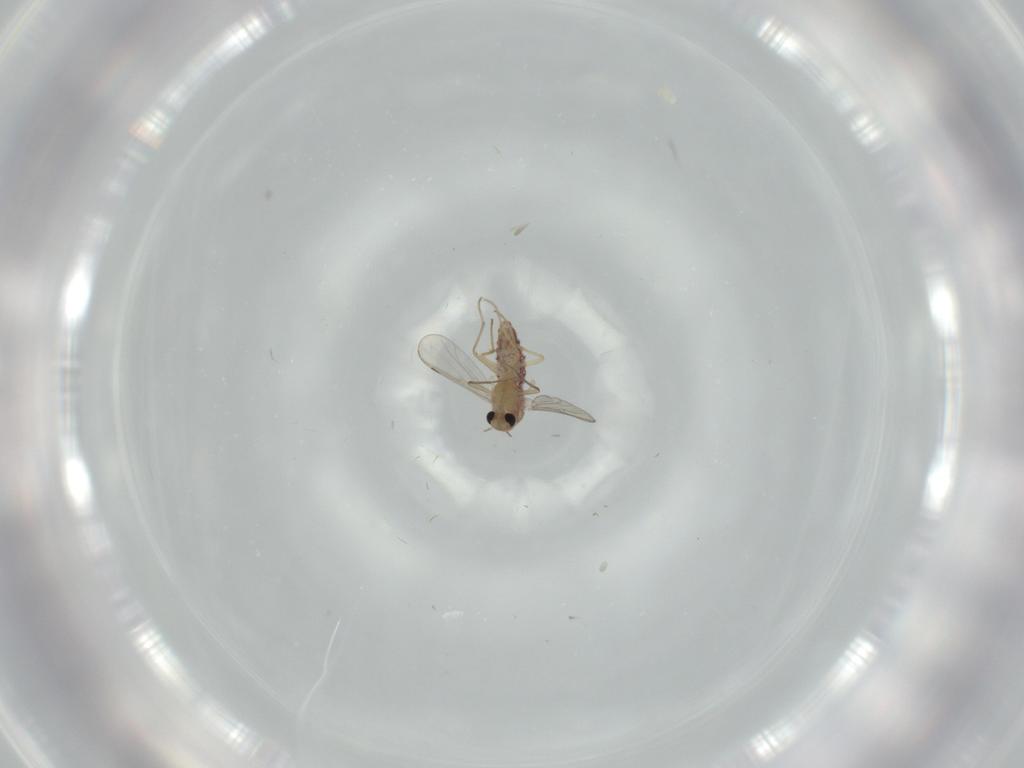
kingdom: Animalia
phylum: Arthropoda
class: Insecta
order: Diptera
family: Chironomidae
